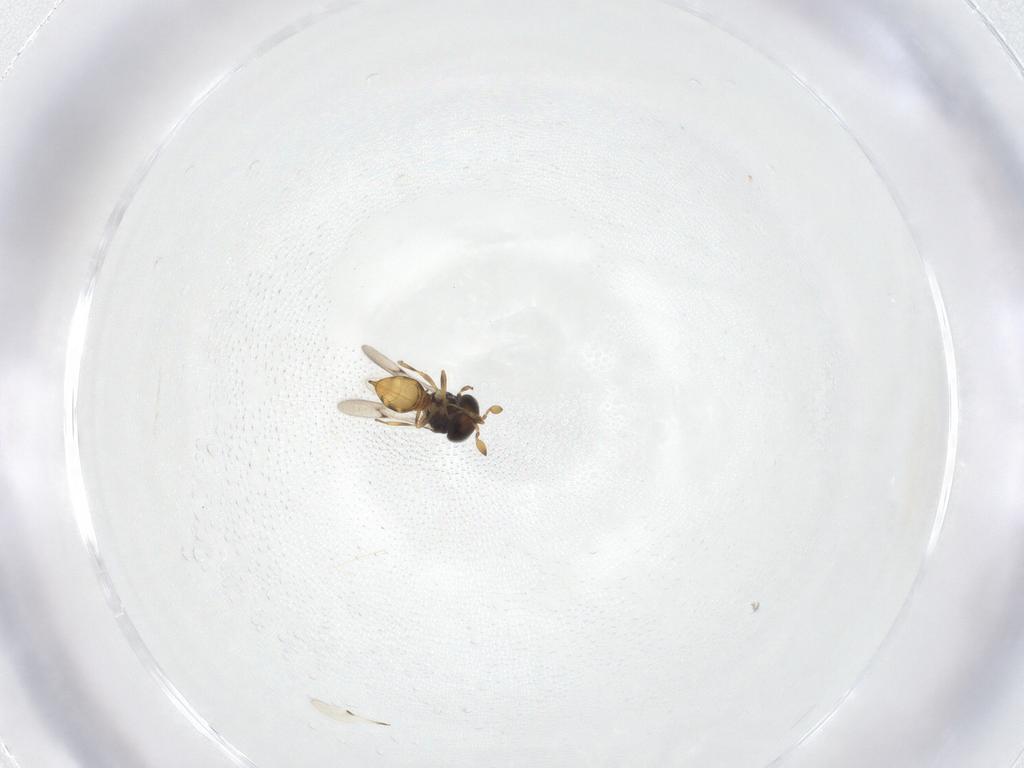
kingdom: Animalia
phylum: Arthropoda
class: Insecta
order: Hymenoptera
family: Scelionidae
